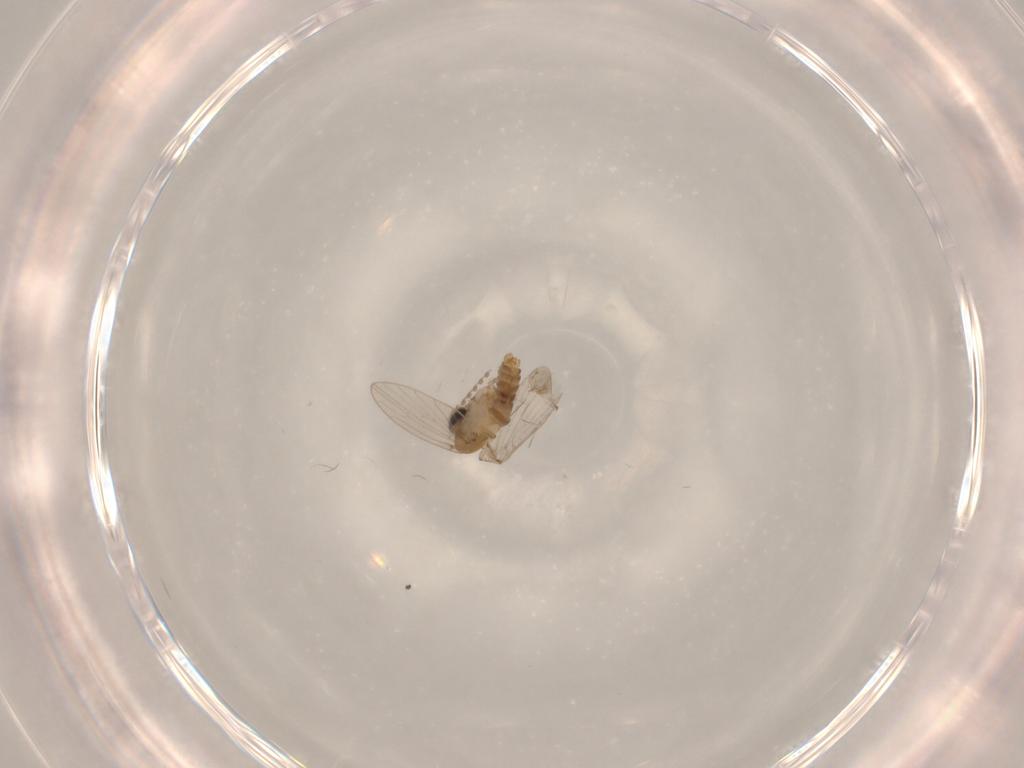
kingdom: Animalia
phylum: Arthropoda
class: Insecta
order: Diptera
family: Chironomidae
